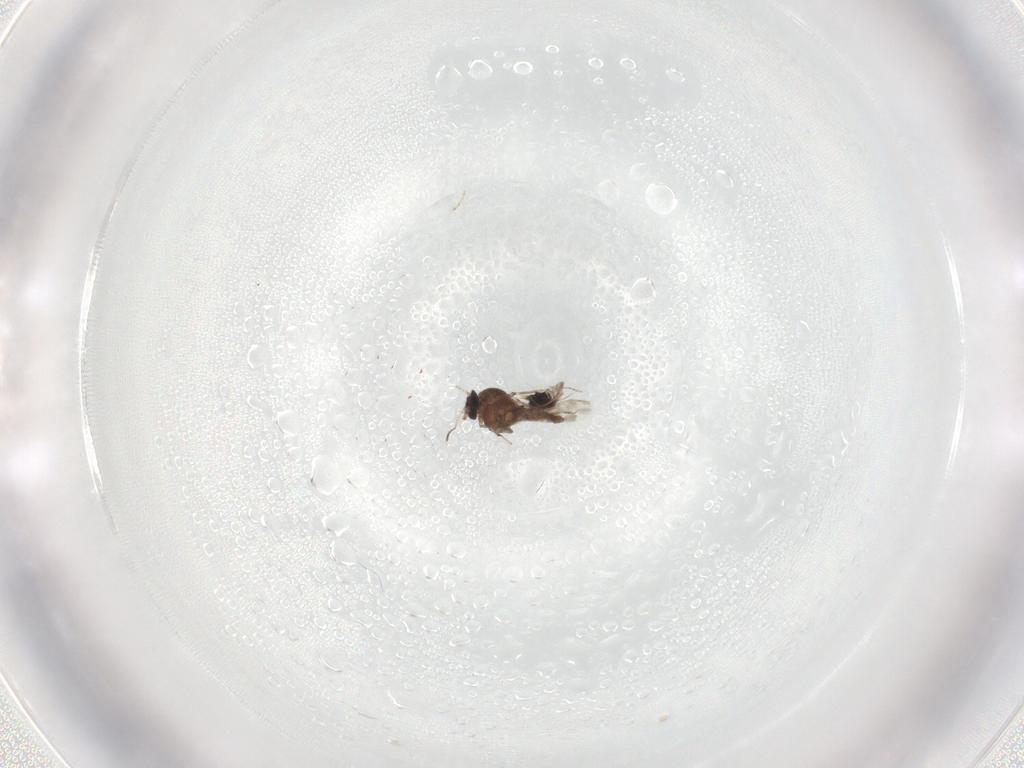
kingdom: Animalia
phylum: Arthropoda
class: Insecta
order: Diptera
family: Ceratopogonidae
